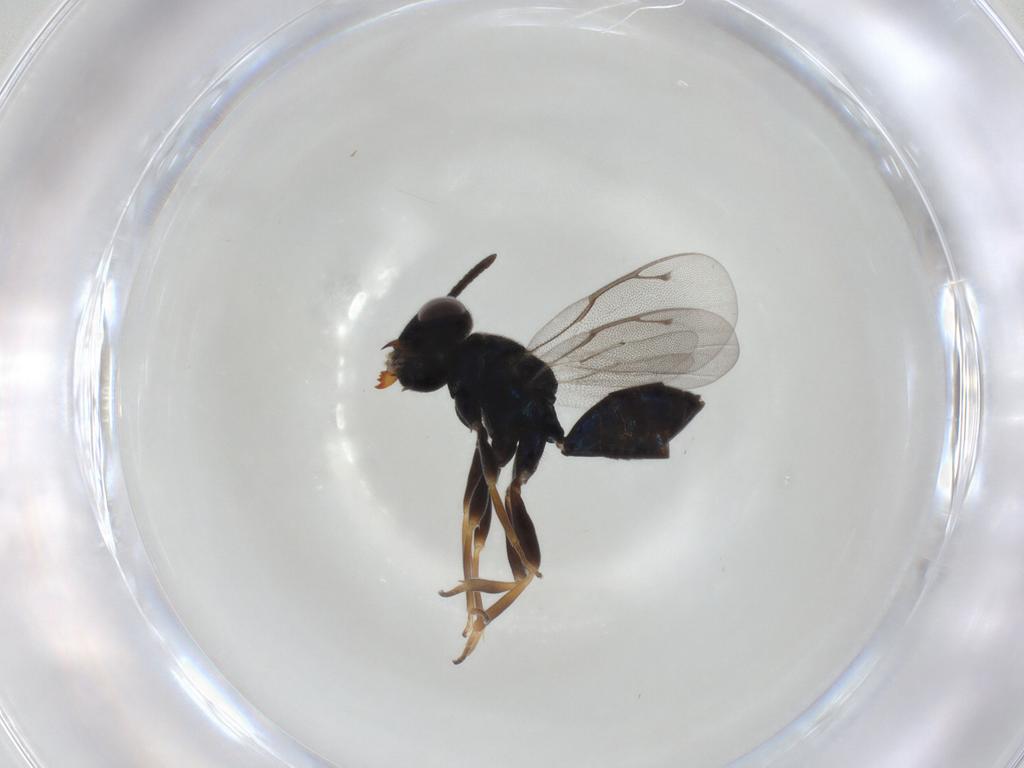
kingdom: Animalia
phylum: Arthropoda
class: Insecta
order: Hymenoptera
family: Pteromalidae
